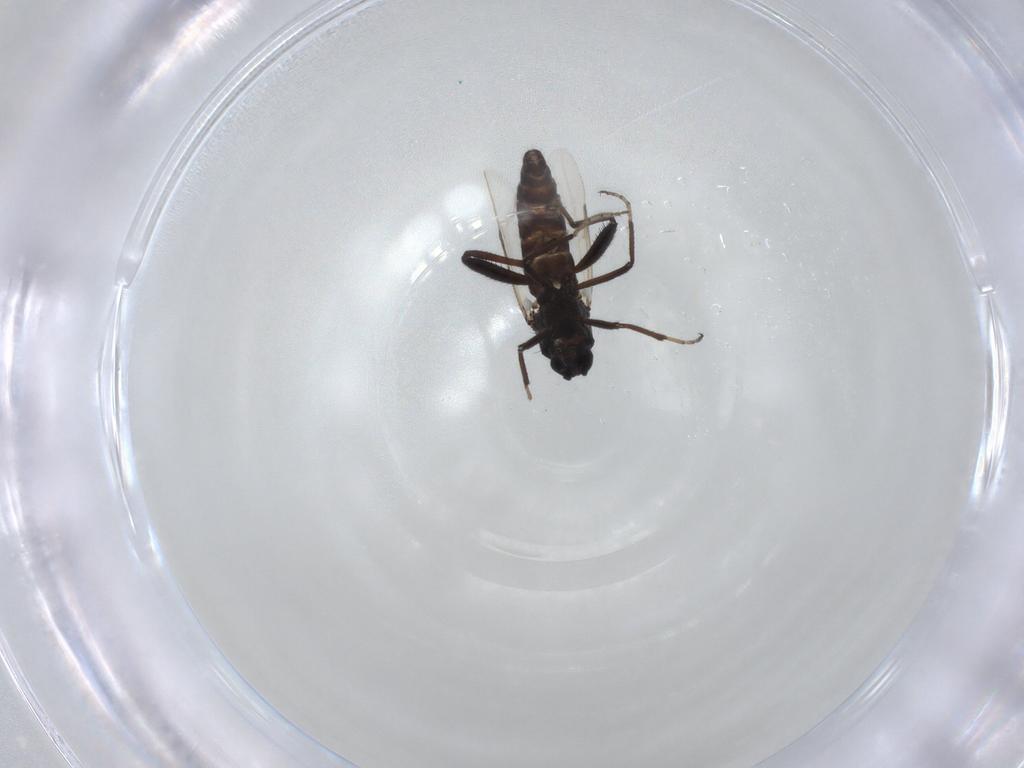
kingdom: Animalia
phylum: Arthropoda
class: Insecta
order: Diptera
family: Ceratopogonidae
